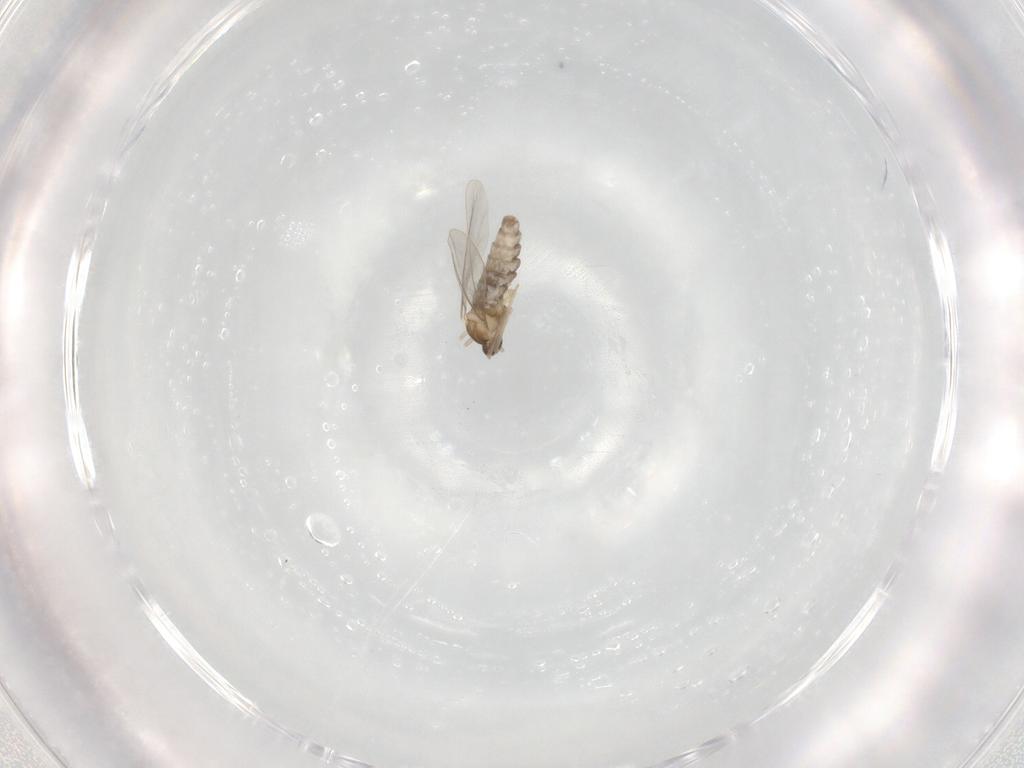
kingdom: Animalia
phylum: Arthropoda
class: Insecta
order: Diptera
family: Cecidomyiidae
